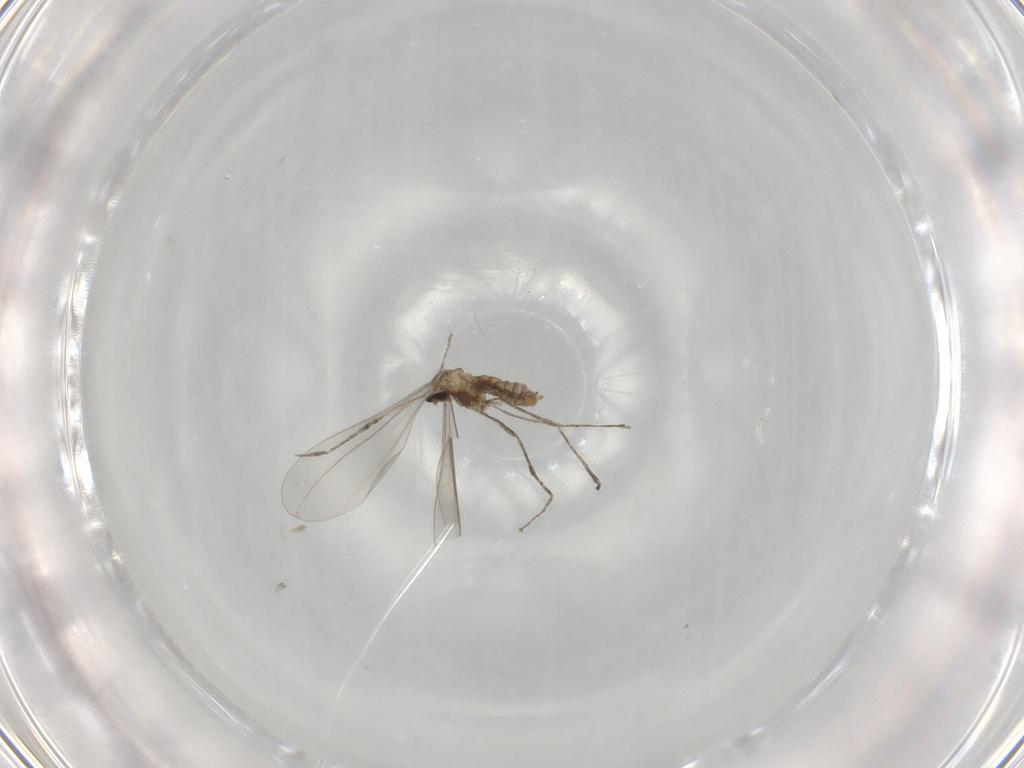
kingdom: Animalia
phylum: Arthropoda
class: Insecta
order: Diptera
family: Cecidomyiidae
